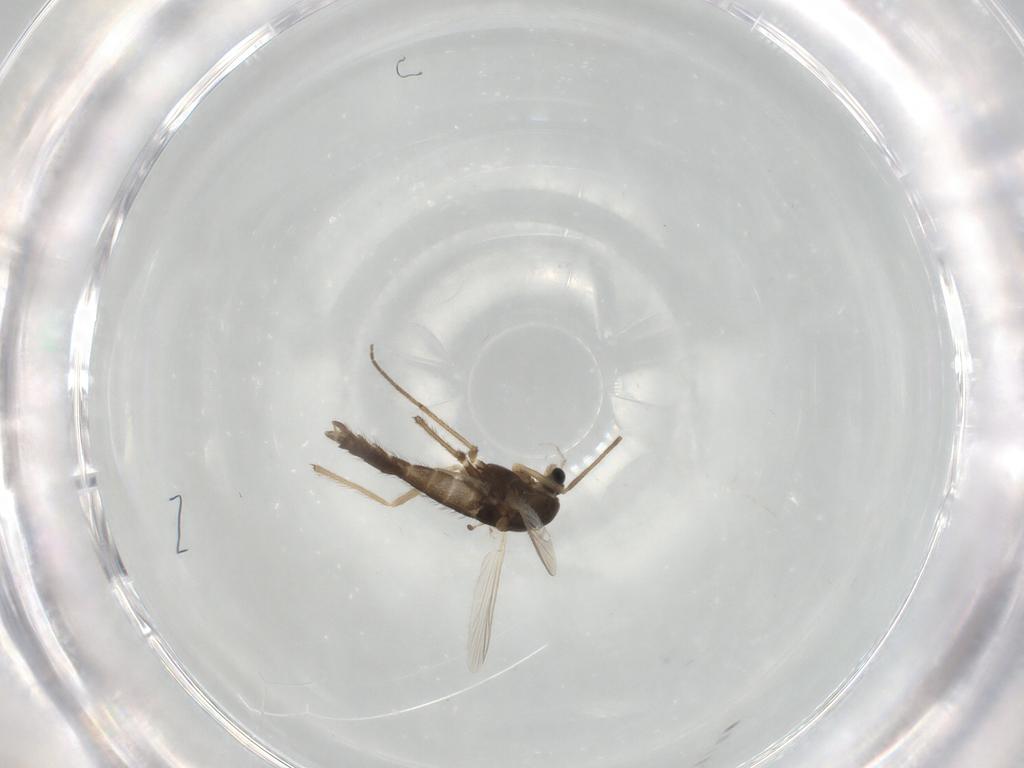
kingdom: Animalia
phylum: Arthropoda
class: Insecta
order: Diptera
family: Chironomidae
